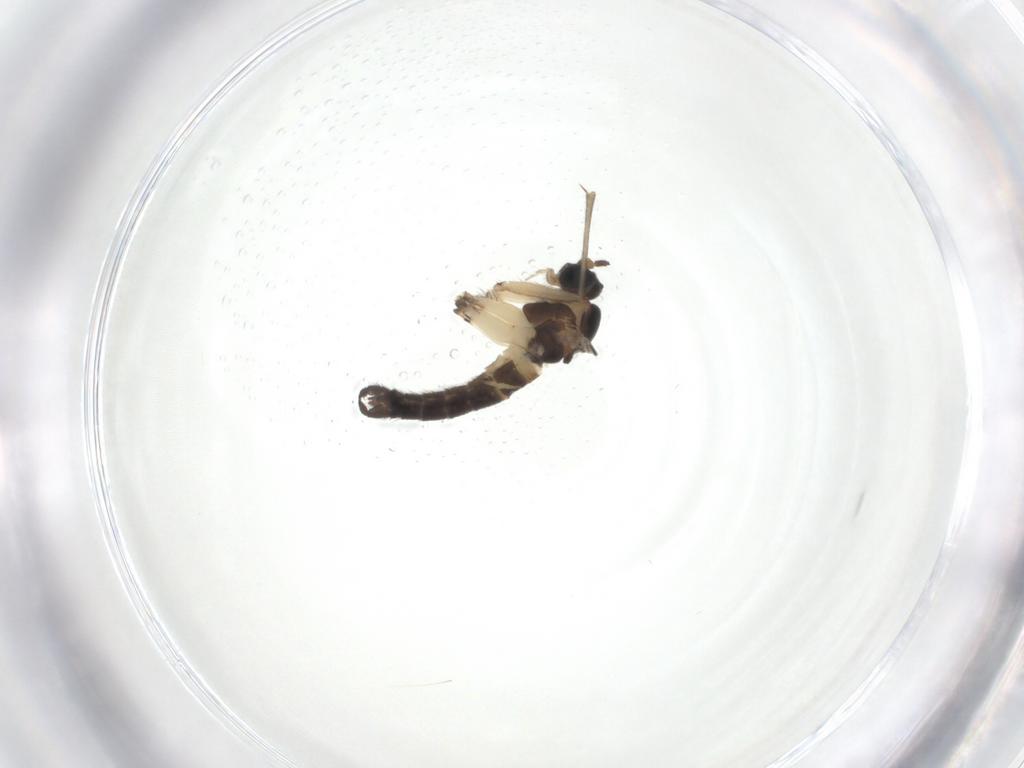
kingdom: Animalia
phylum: Arthropoda
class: Insecta
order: Diptera
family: Sciaridae
